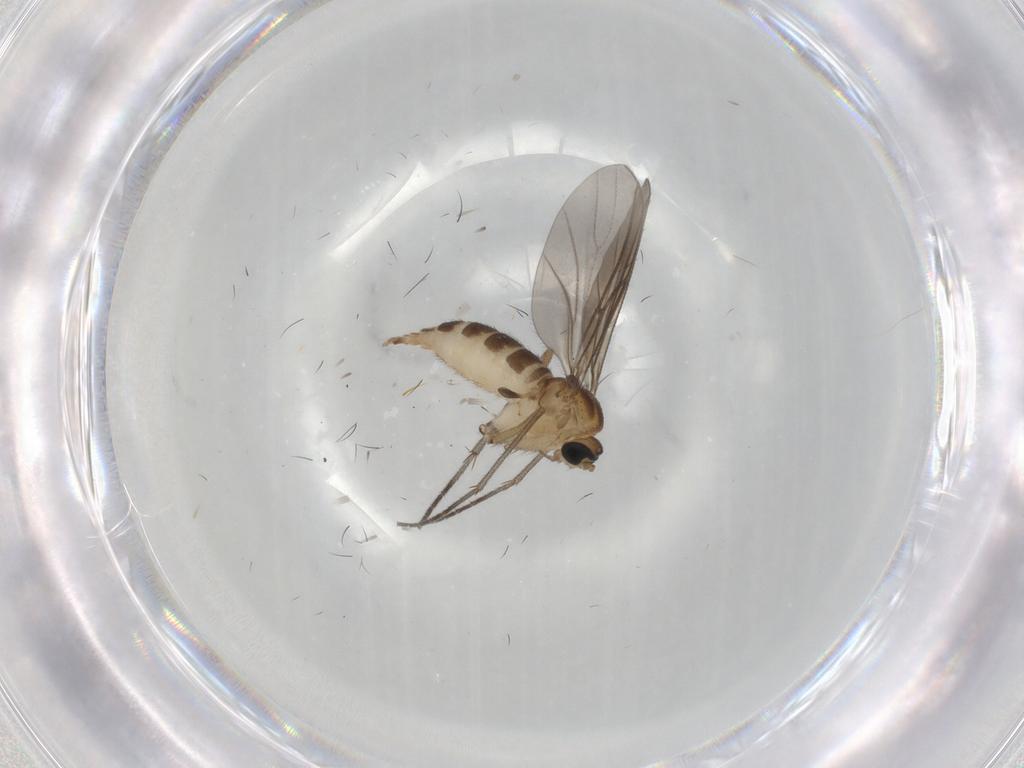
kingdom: Animalia
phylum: Arthropoda
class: Insecta
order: Diptera
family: Sciaridae
